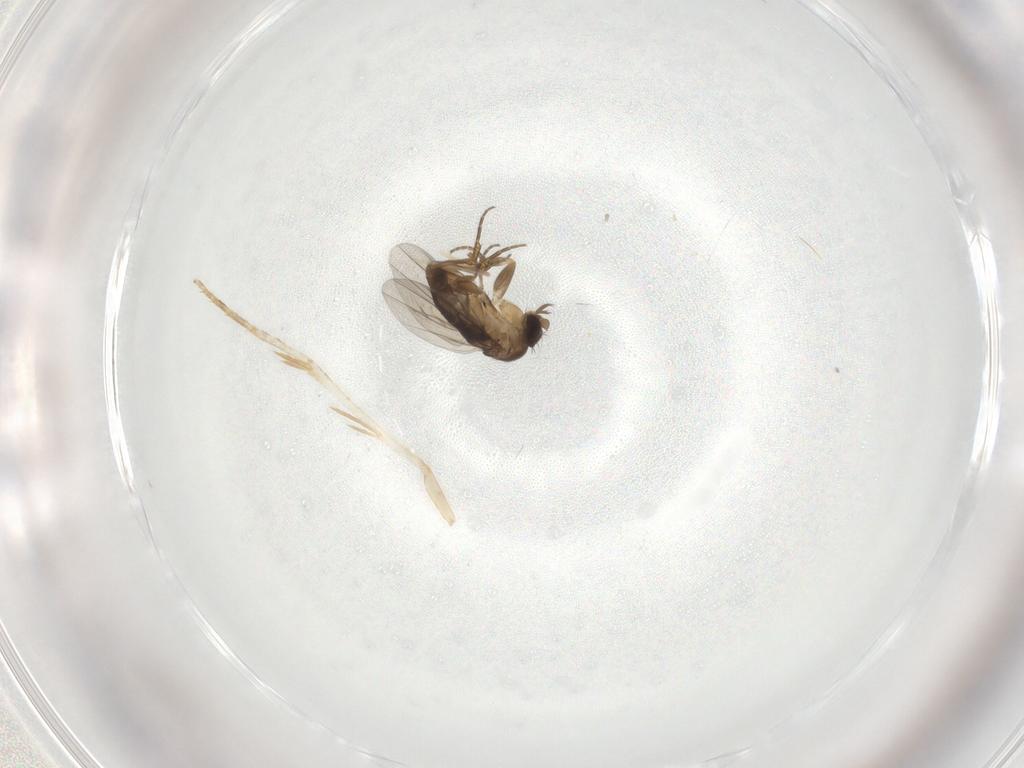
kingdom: Animalia
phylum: Arthropoda
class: Insecta
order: Diptera
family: Phoridae
